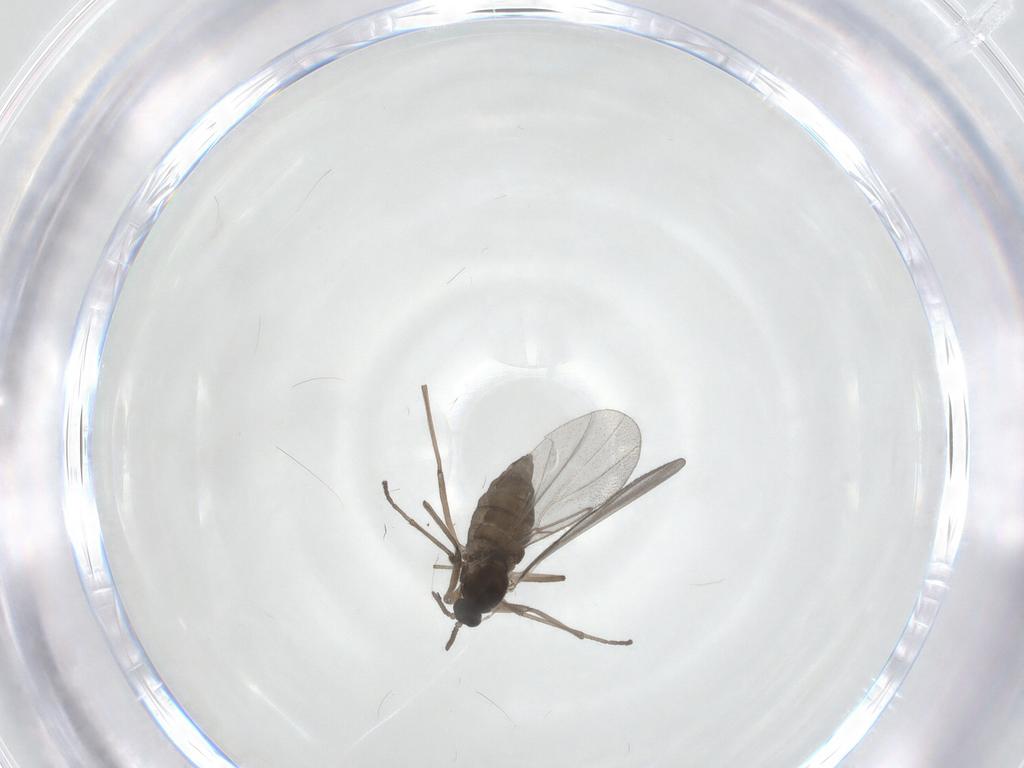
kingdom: Animalia
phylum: Arthropoda
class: Insecta
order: Diptera
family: Cecidomyiidae
